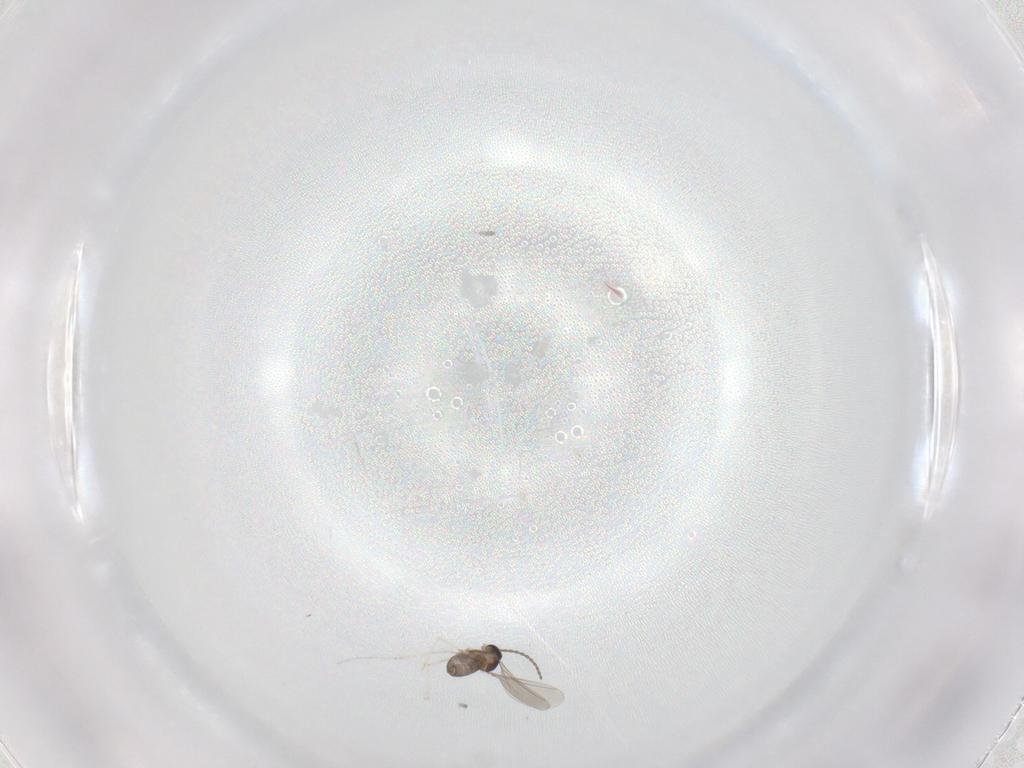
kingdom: Animalia
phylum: Arthropoda
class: Insecta
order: Diptera
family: Cecidomyiidae
